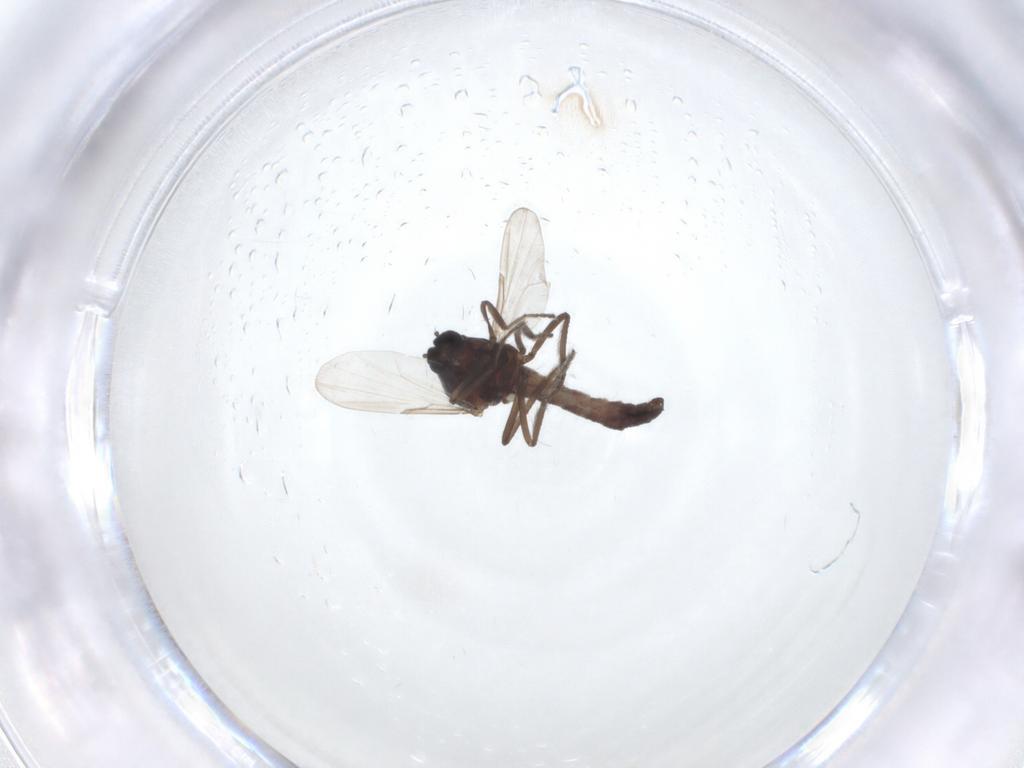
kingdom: Animalia
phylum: Arthropoda
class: Insecta
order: Diptera
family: Ceratopogonidae
